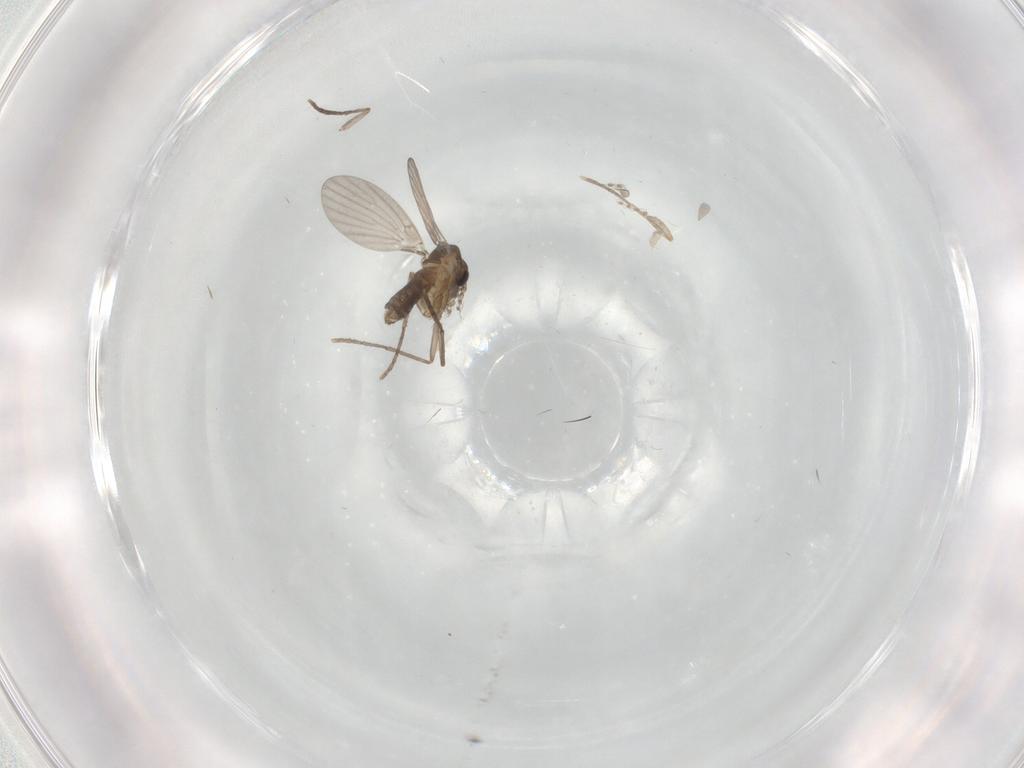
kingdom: Animalia
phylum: Arthropoda
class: Insecta
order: Diptera
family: Psychodidae
